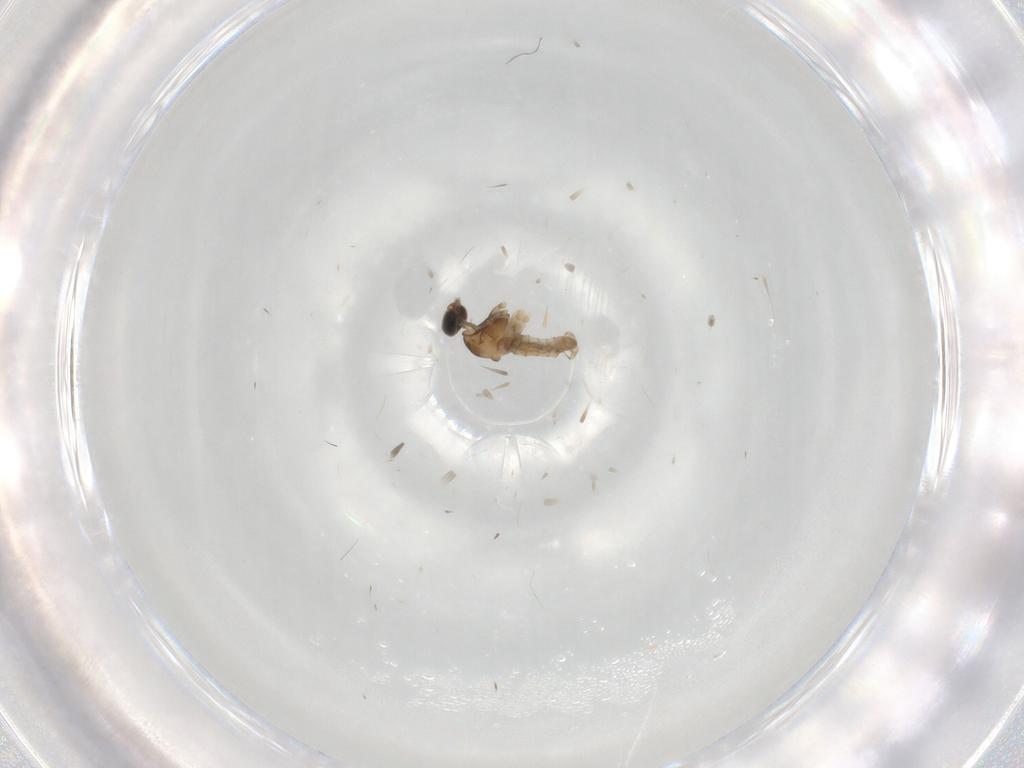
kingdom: Animalia
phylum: Arthropoda
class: Insecta
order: Diptera
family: Cecidomyiidae
